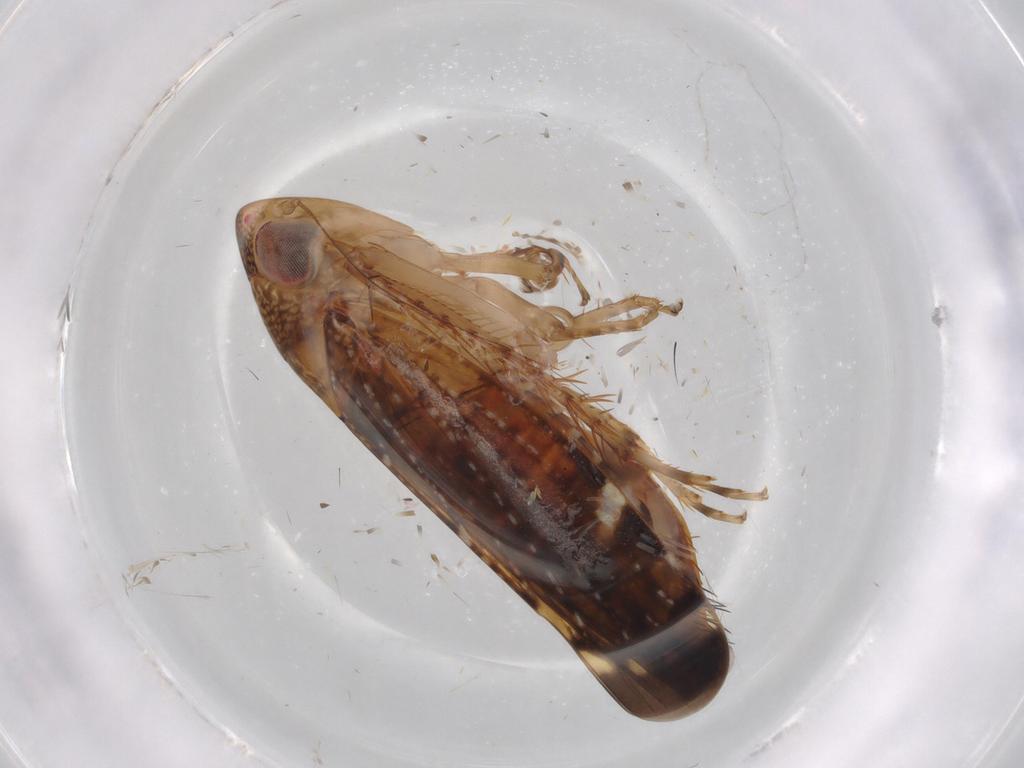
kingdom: Animalia
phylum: Arthropoda
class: Insecta
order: Hemiptera
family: Cicadellidae
